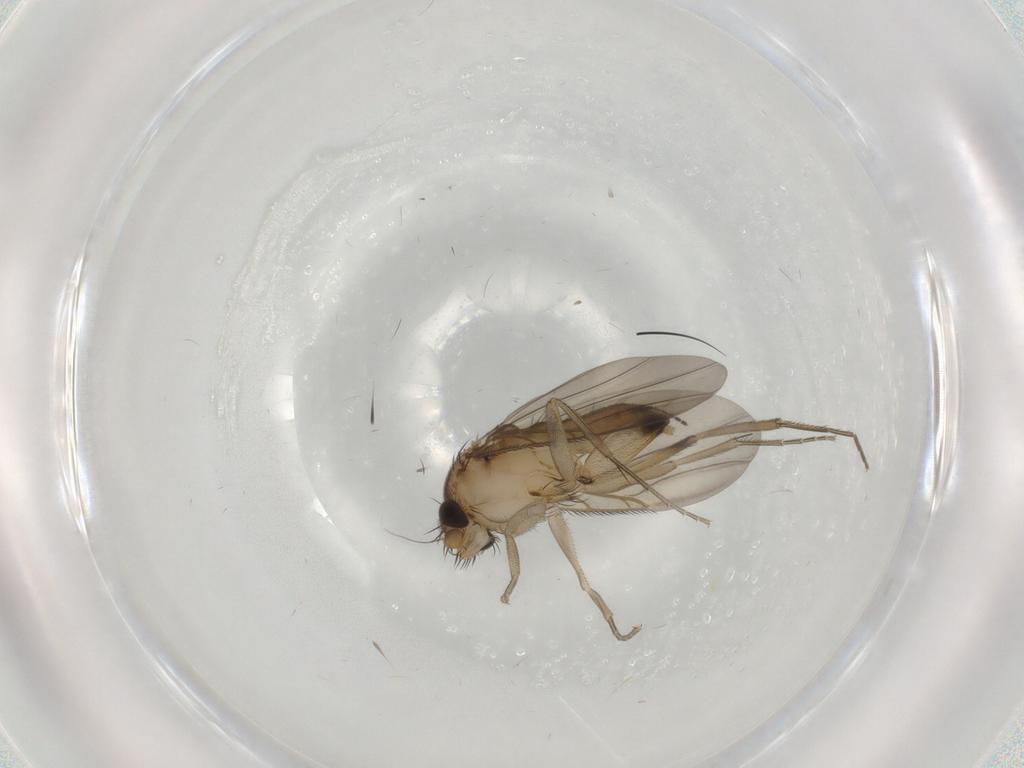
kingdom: Animalia
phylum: Arthropoda
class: Insecta
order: Diptera
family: Phoridae
